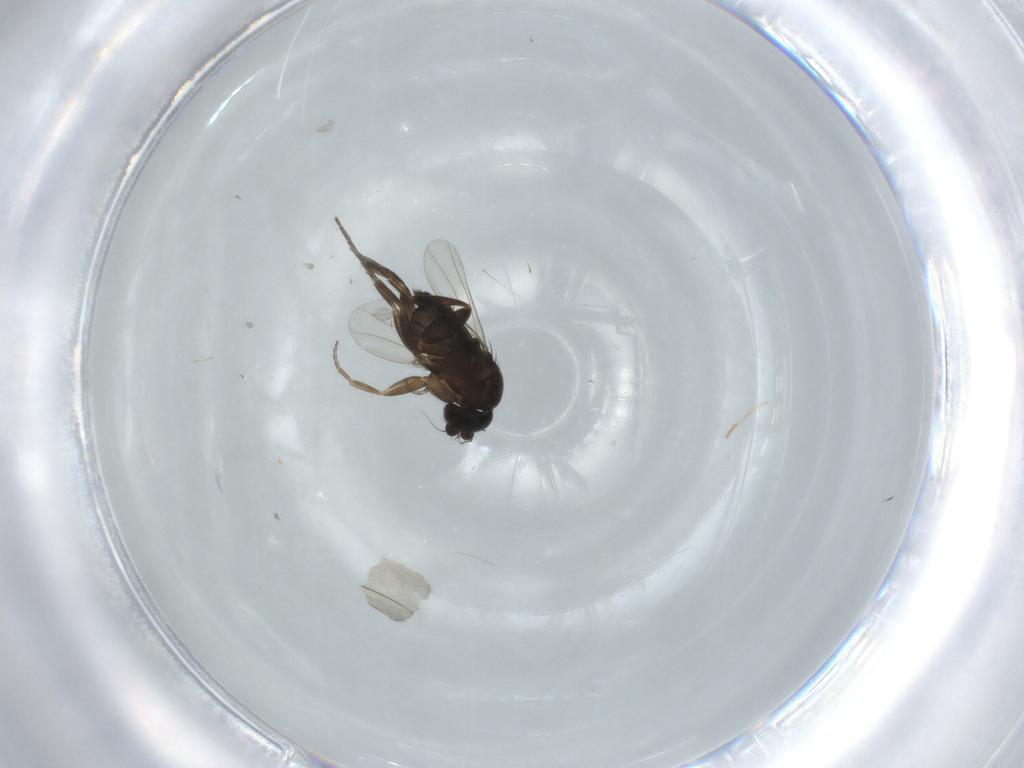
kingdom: Animalia
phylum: Arthropoda
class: Insecta
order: Diptera
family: Phoridae
